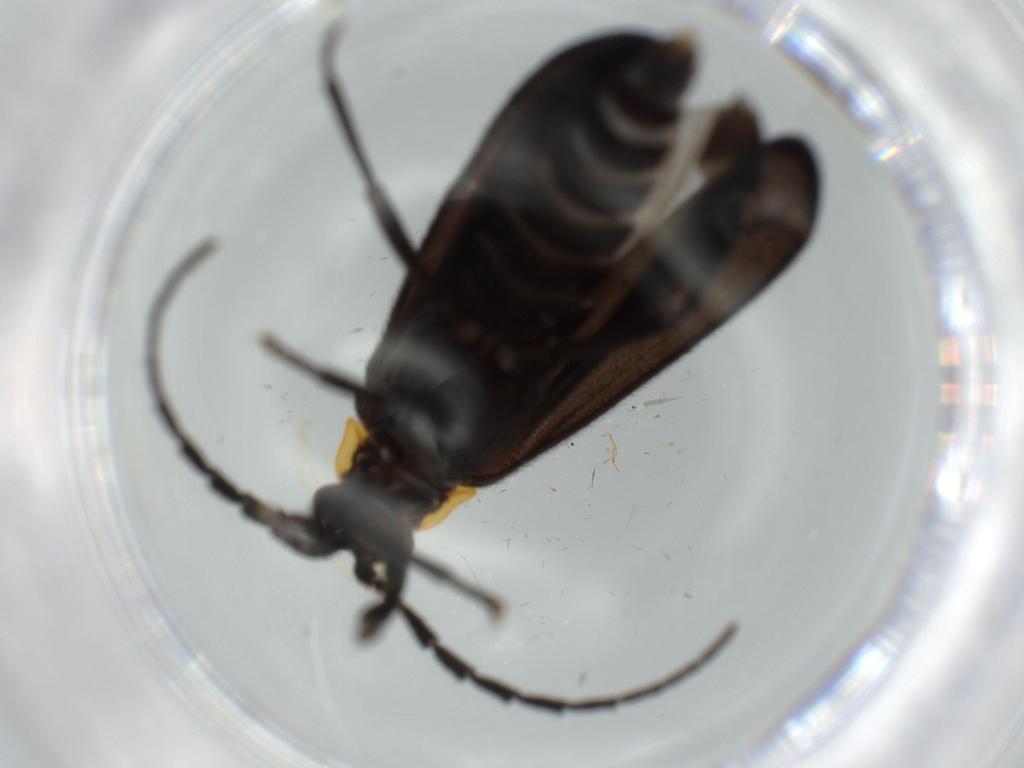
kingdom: Animalia
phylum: Arthropoda
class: Insecta
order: Coleoptera
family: Lycidae
